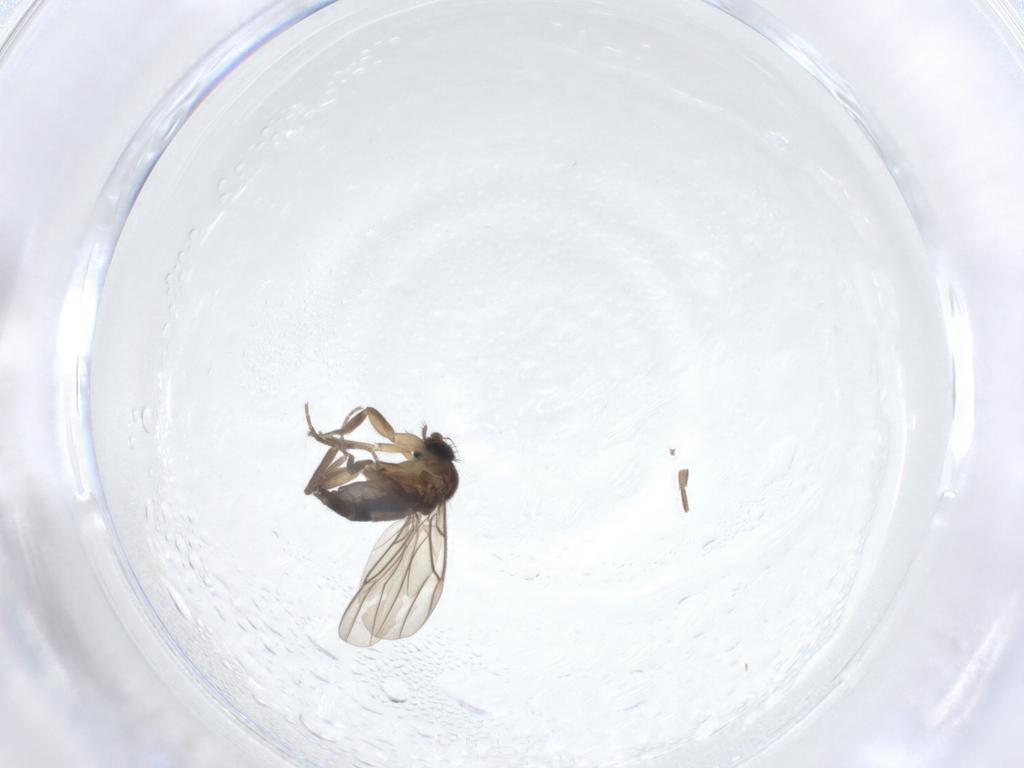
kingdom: Animalia
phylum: Arthropoda
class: Insecta
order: Diptera
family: Phoridae
